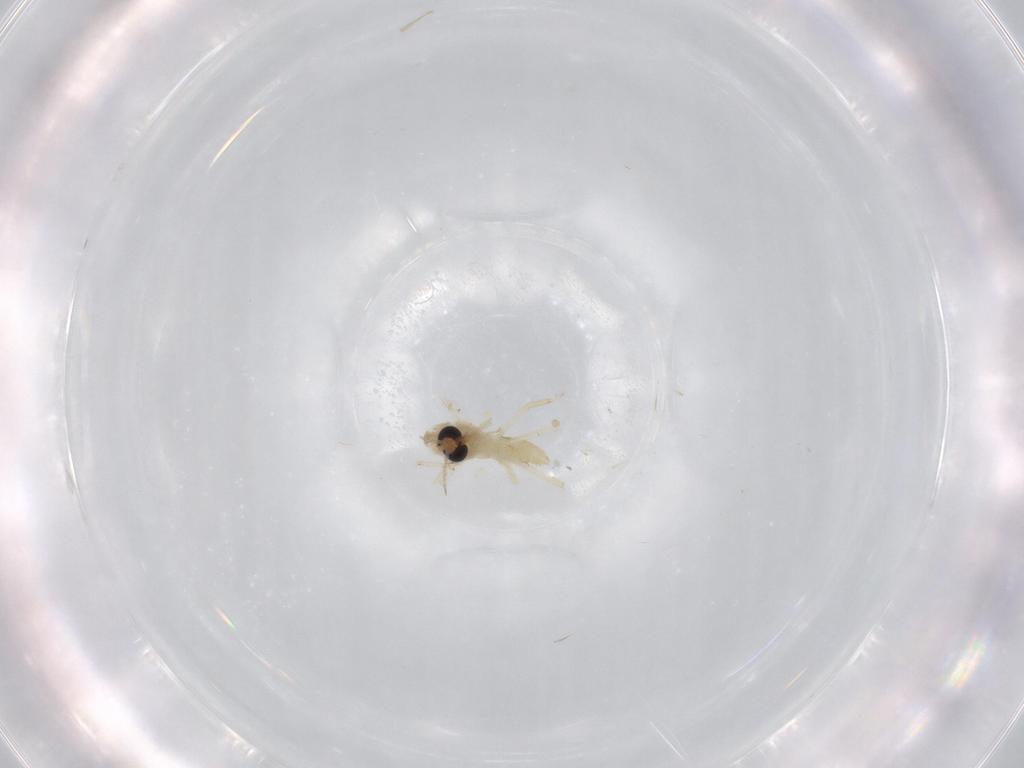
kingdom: Animalia
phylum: Arthropoda
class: Insecta
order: Diptera
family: Chironomidae
